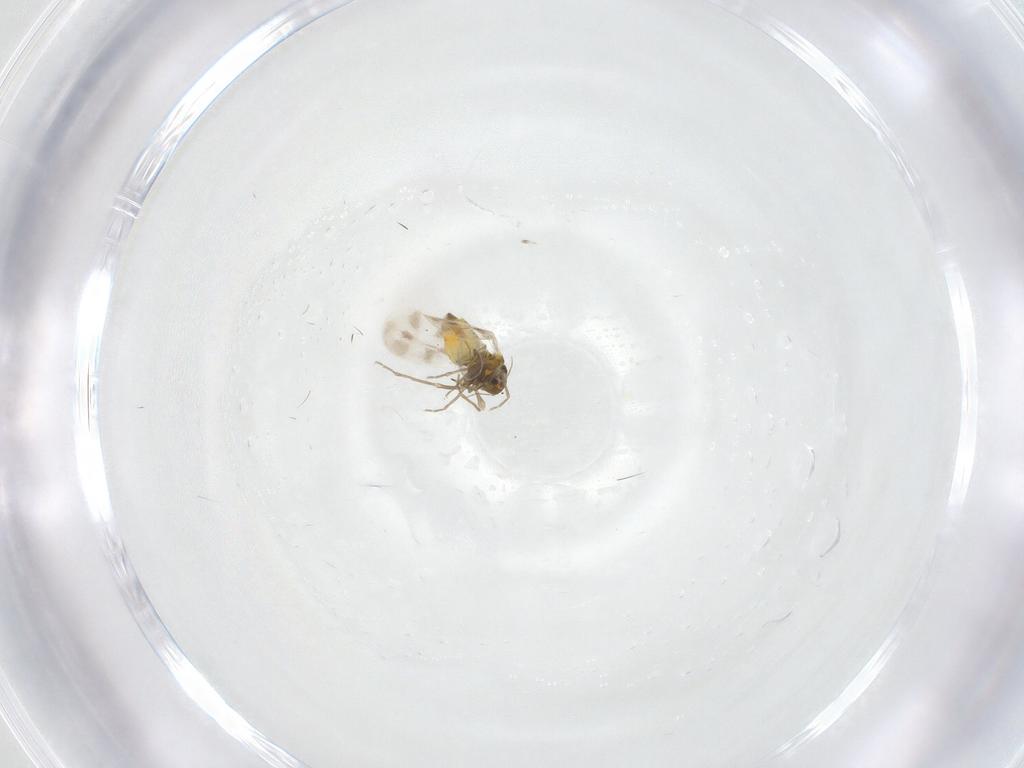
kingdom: Animalia
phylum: Arthropoda
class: Insecta
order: Hemiptera
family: Aleyrodidae
